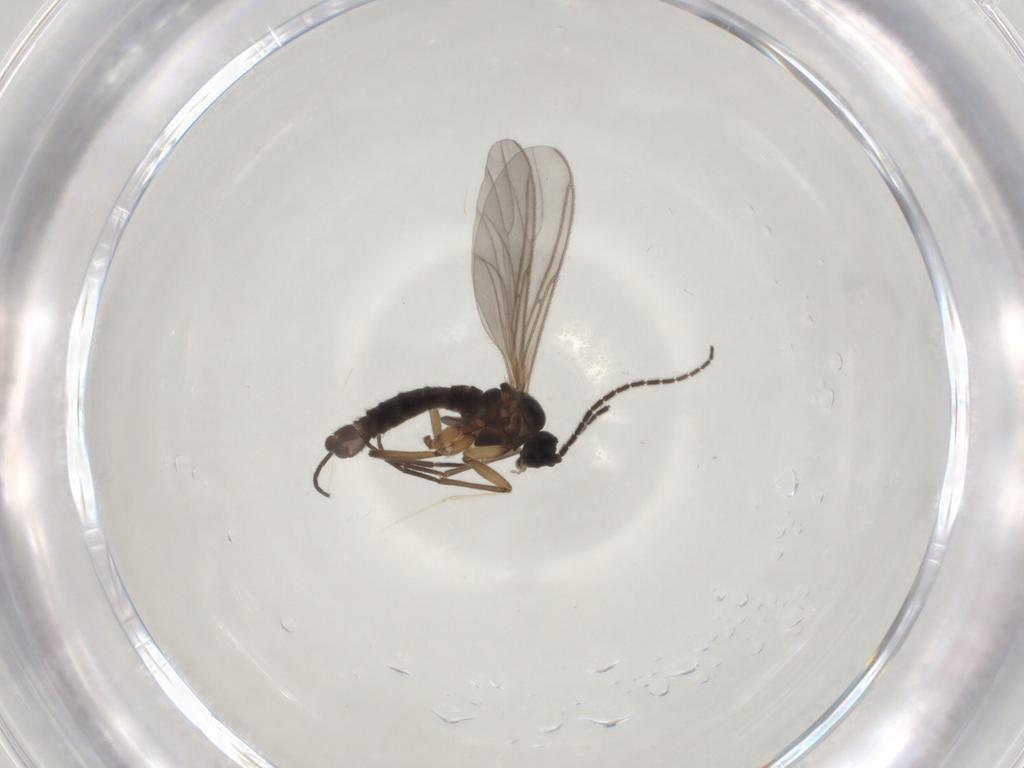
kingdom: Animalia
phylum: Arthropoda
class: Insecta
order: Diptera
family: Sciaridae
